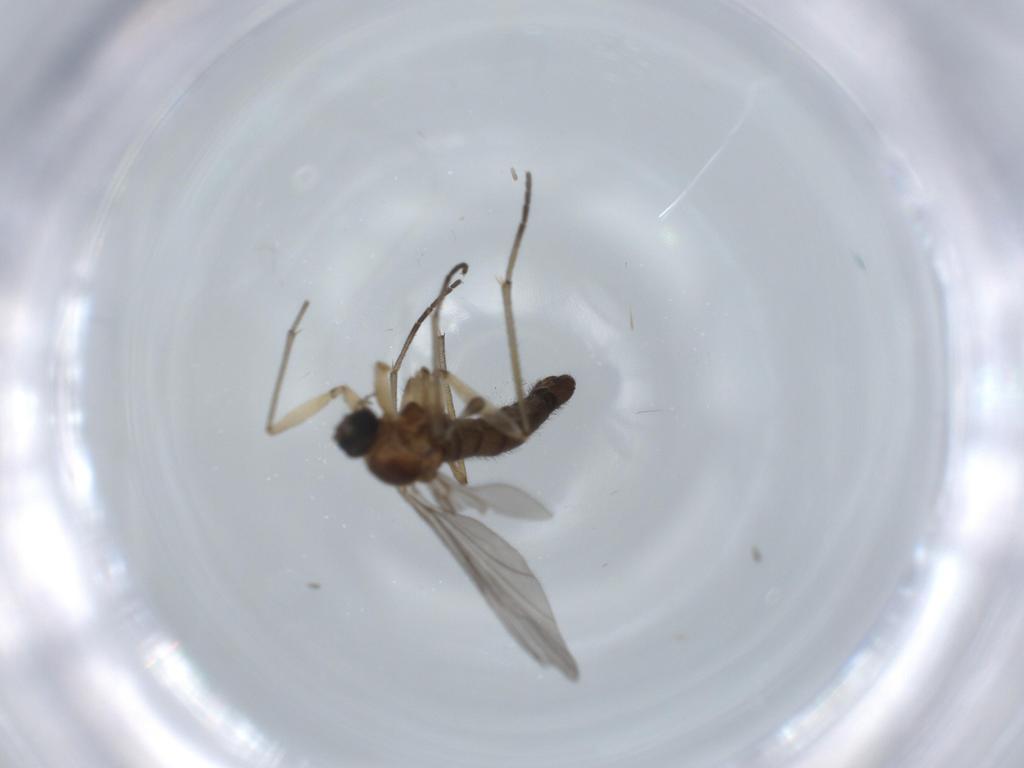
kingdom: Animalia
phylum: Arthropoda
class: Insecta
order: Diptera
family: Sciaridae
